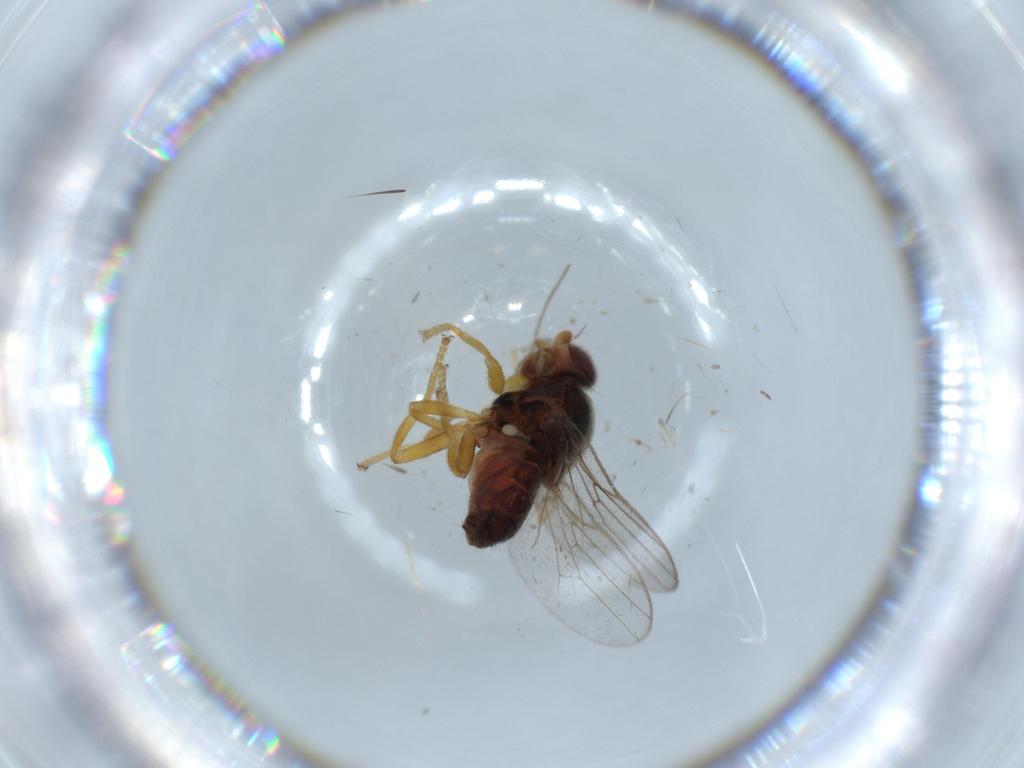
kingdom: Animalia
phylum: Arthropoda
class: Insecta
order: Diptera
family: Chloropidae
